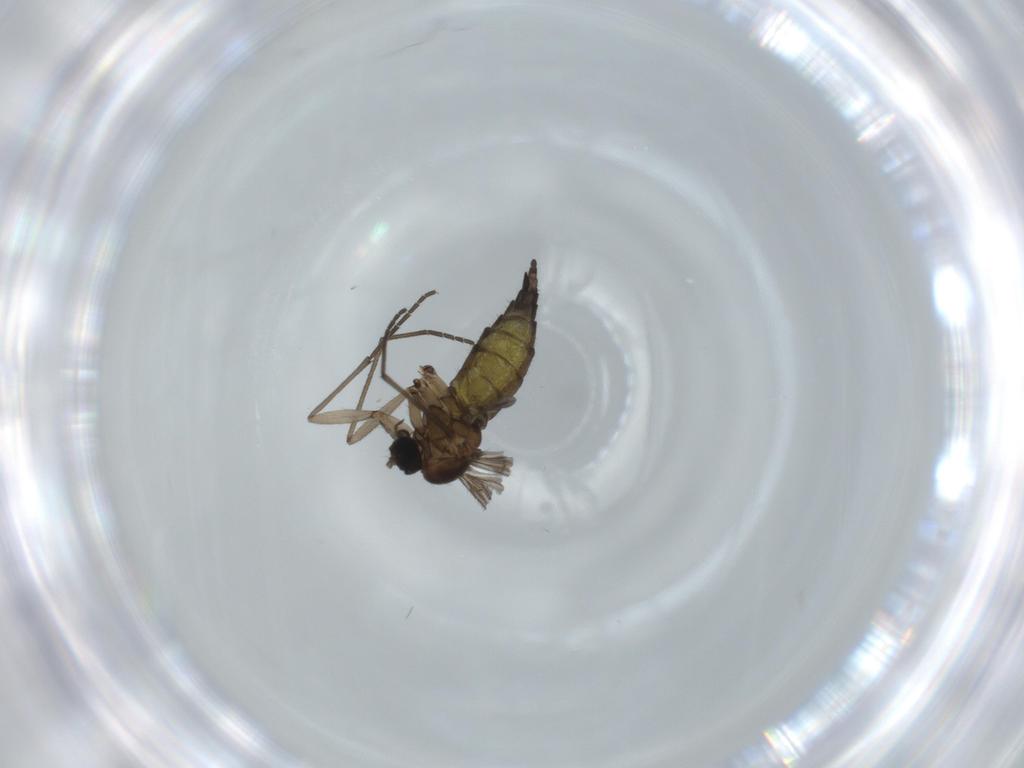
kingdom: Animalia
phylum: Arthropoda
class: Insecta
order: Diptera
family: Sciaridae
